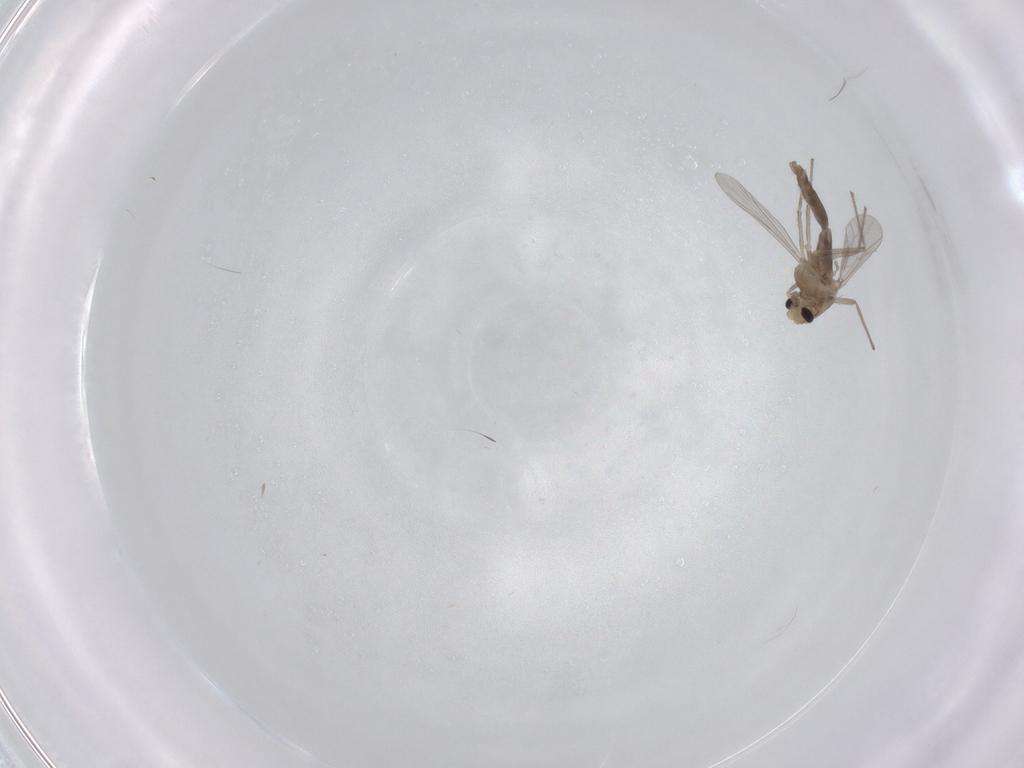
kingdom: Animalia
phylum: Arthropoda
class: Insecta
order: Diptera
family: Chironomidae
